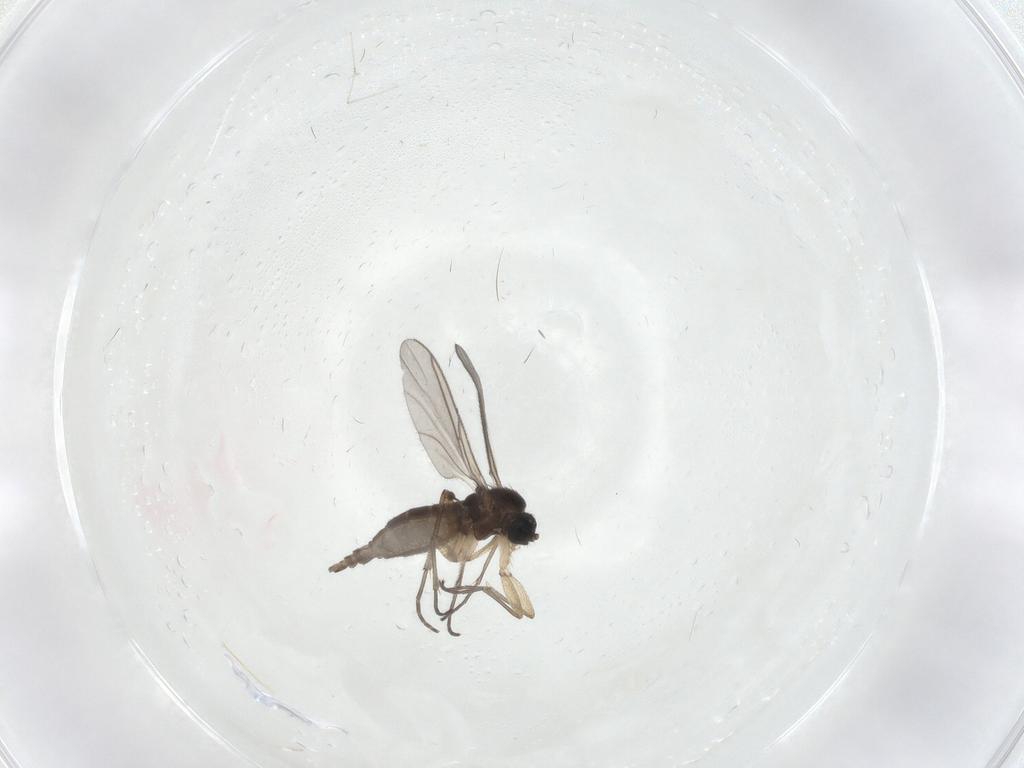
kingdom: Animalia
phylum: Arthropoda
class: Insecta
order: Diptera
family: Sciaridae
